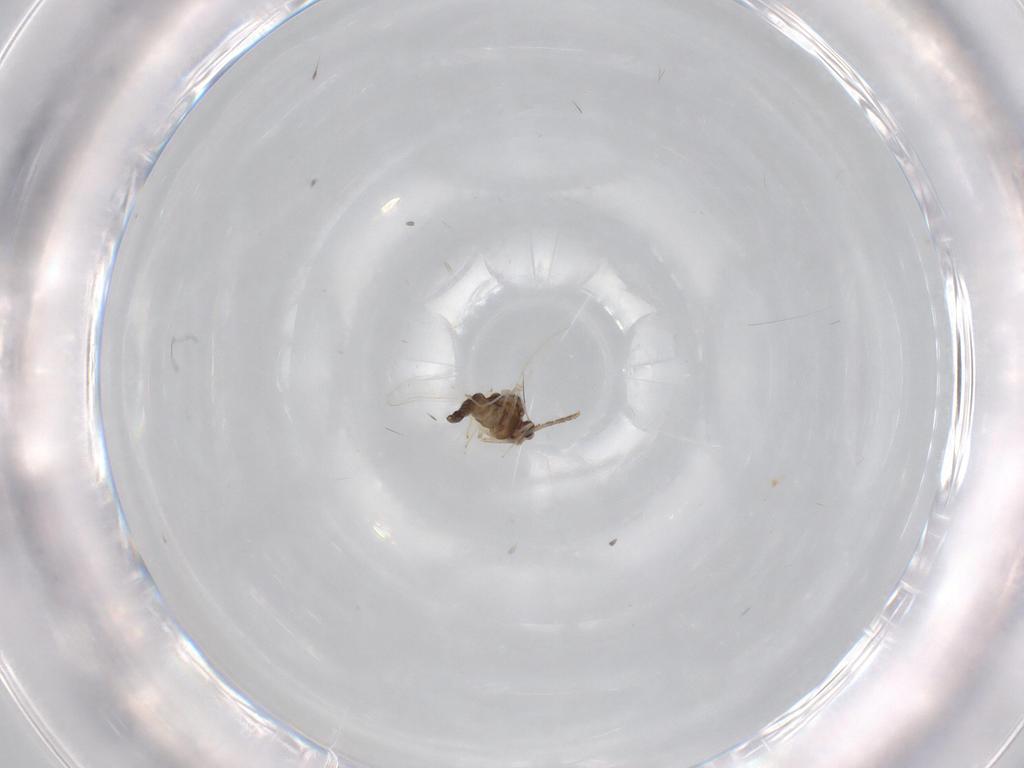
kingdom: Animalia
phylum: Arthropoda
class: Insecta
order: Diptera
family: Chironomidae
